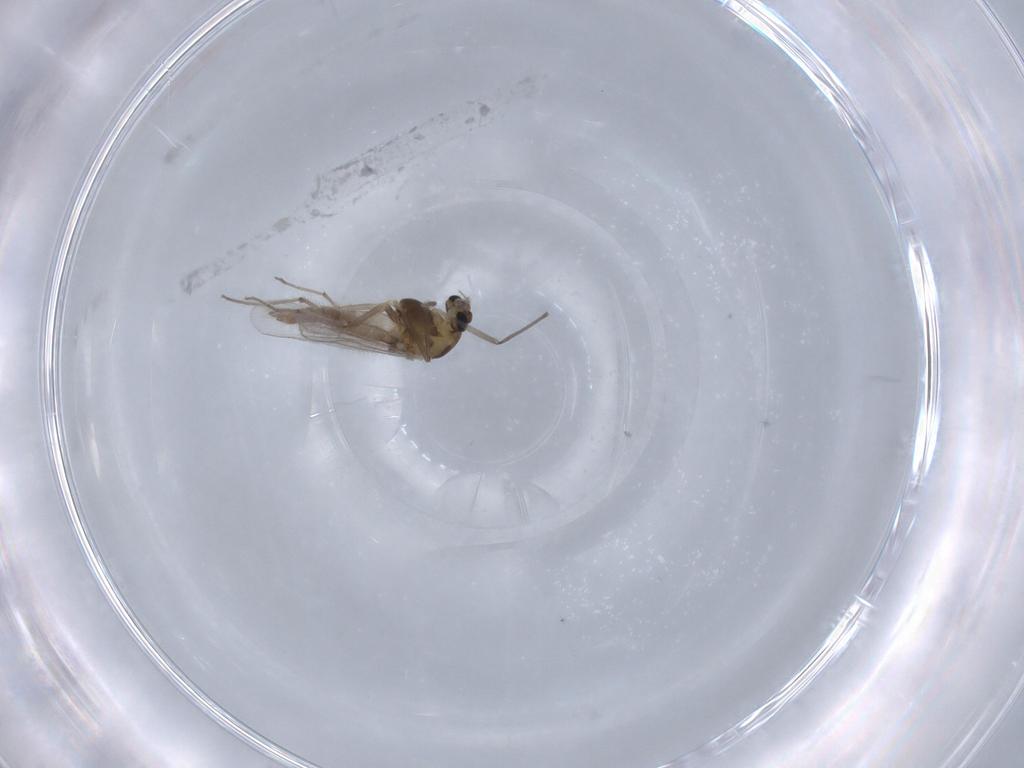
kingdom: Animalia
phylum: Arthropoda
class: Insecta
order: Diptera
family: Chironomidae
